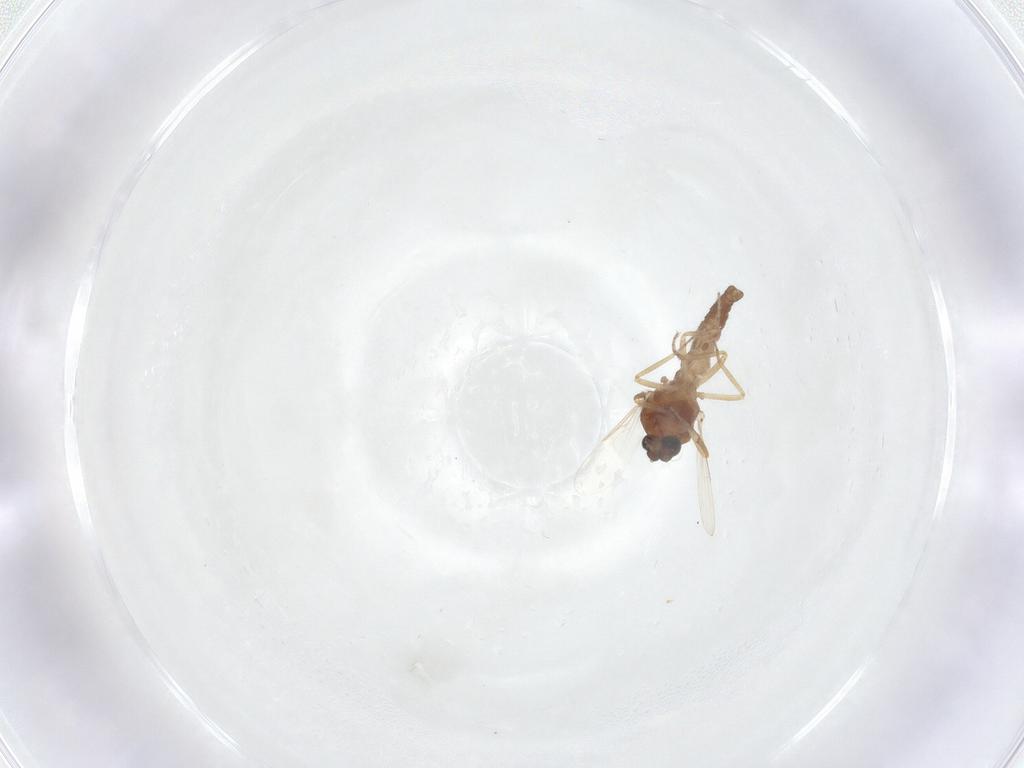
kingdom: Animalia
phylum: Arthropoda
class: Insecta
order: Diptera
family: Ceratopogonidae
